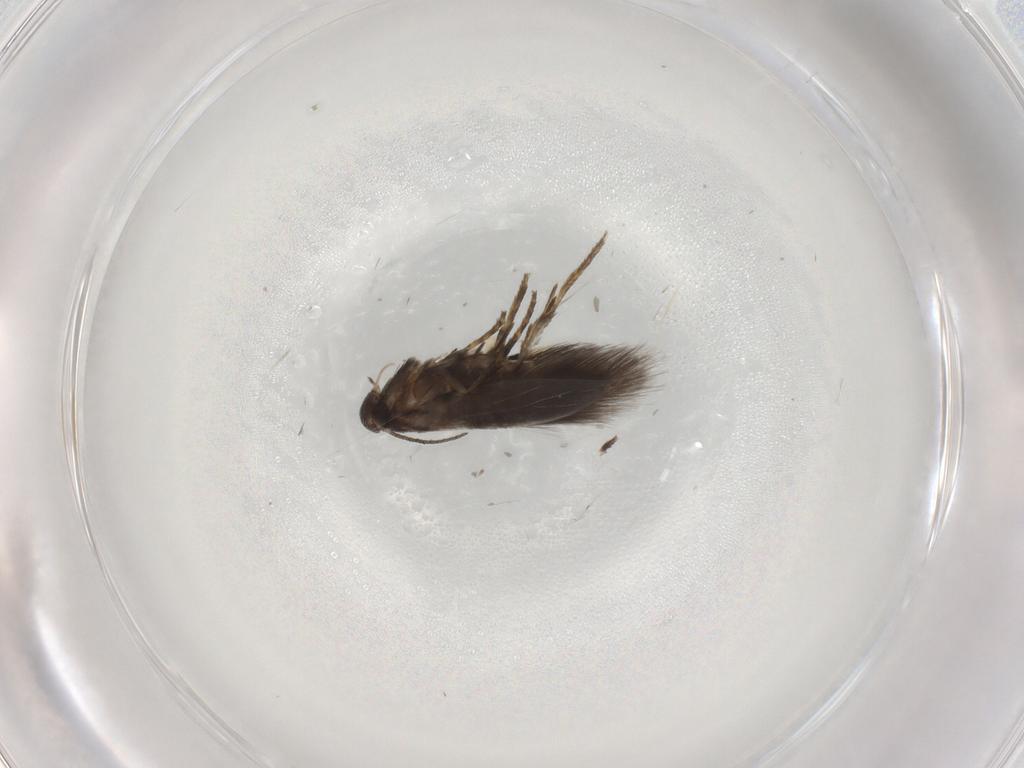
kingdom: Animalia
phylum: Arthropoda
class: Insecta
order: Lepidoptera
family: Heliozelidae
